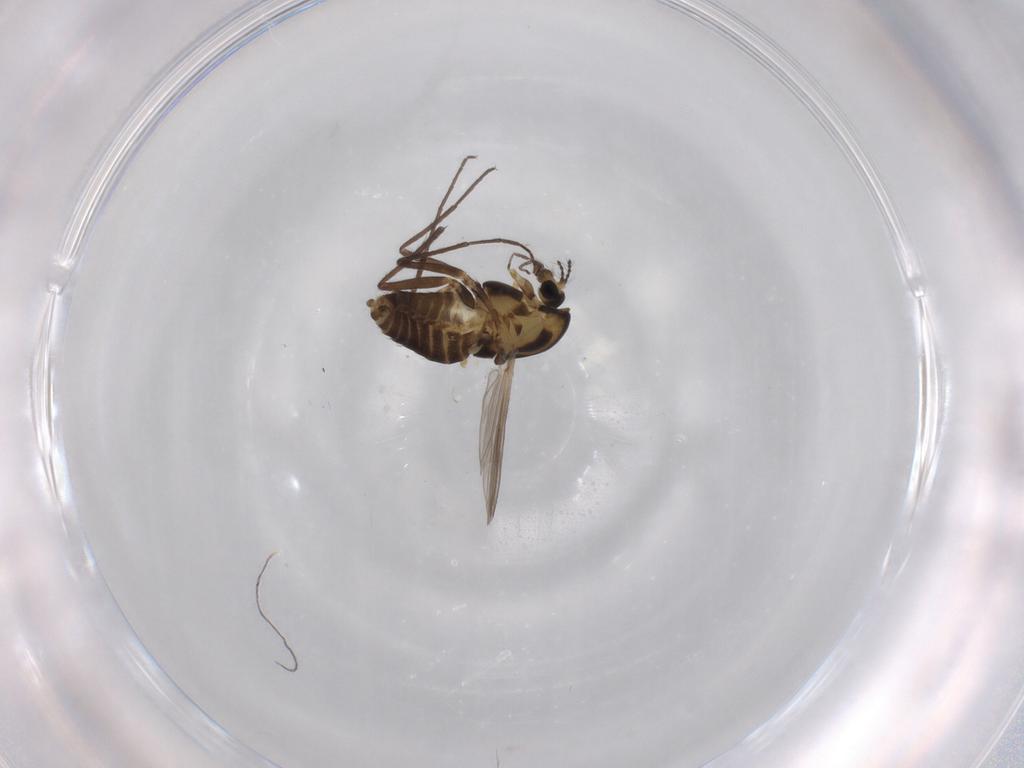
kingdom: Animalia
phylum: Arthropoda
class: Insecta
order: Diptera
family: Chironomidae
